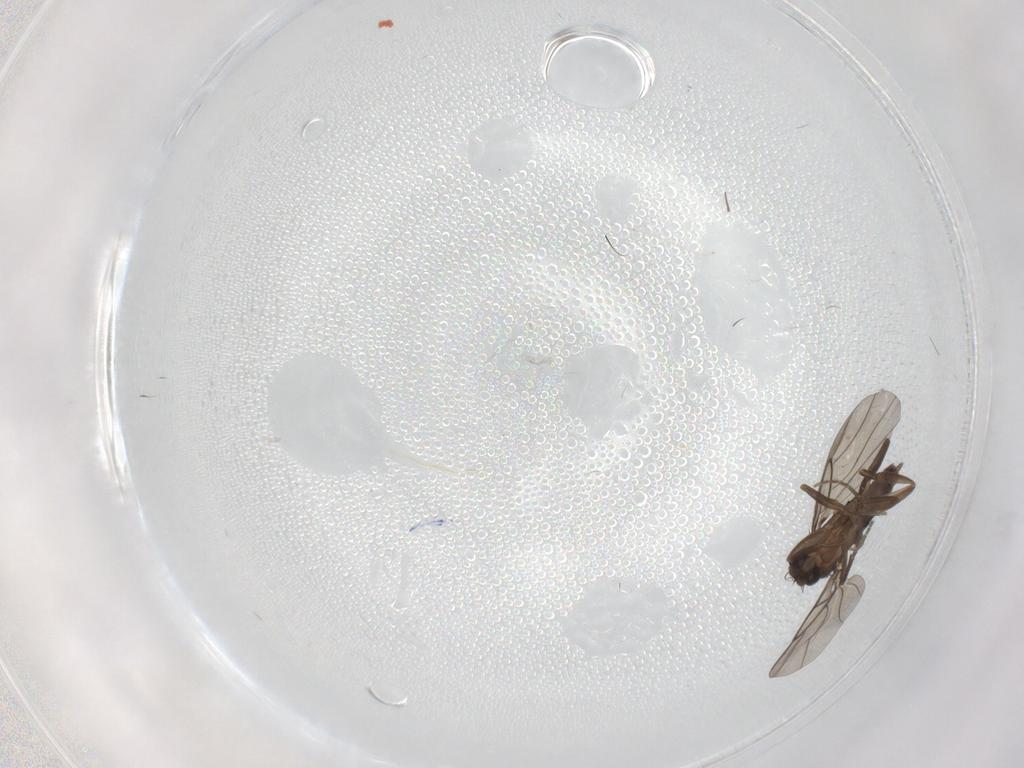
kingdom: Animalia
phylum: Arthropoda
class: Insecta
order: Diptera
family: Phoridae
